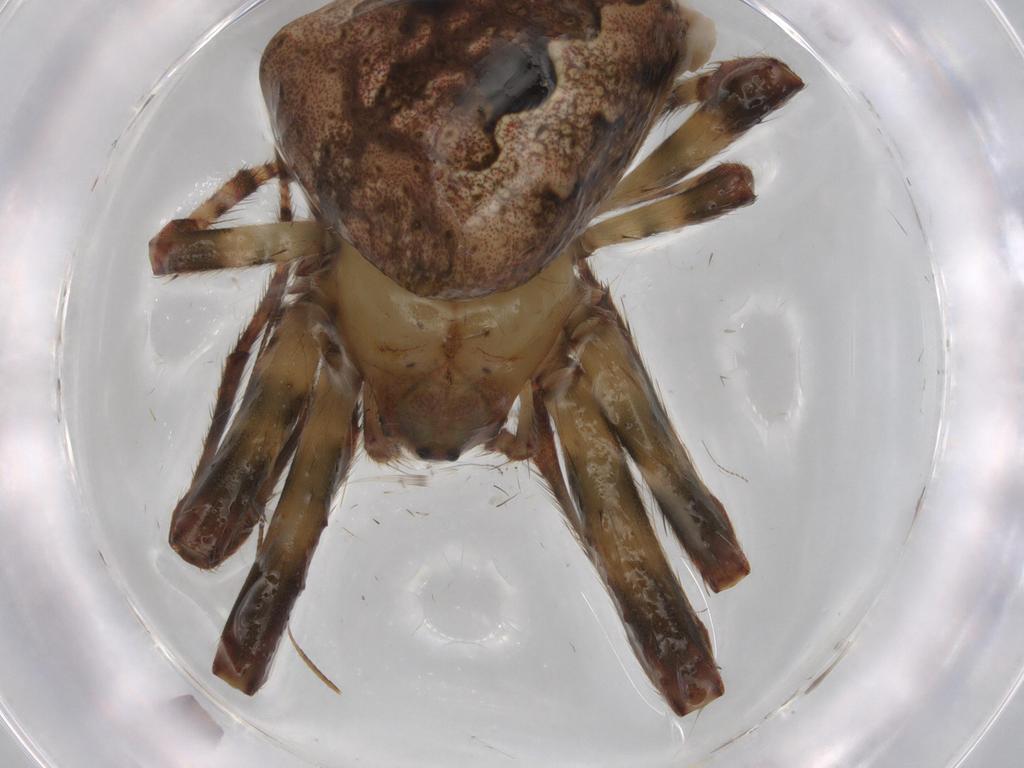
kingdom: Animalia
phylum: Arthropoda
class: Arachnida
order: Araneae
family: Araneidae
